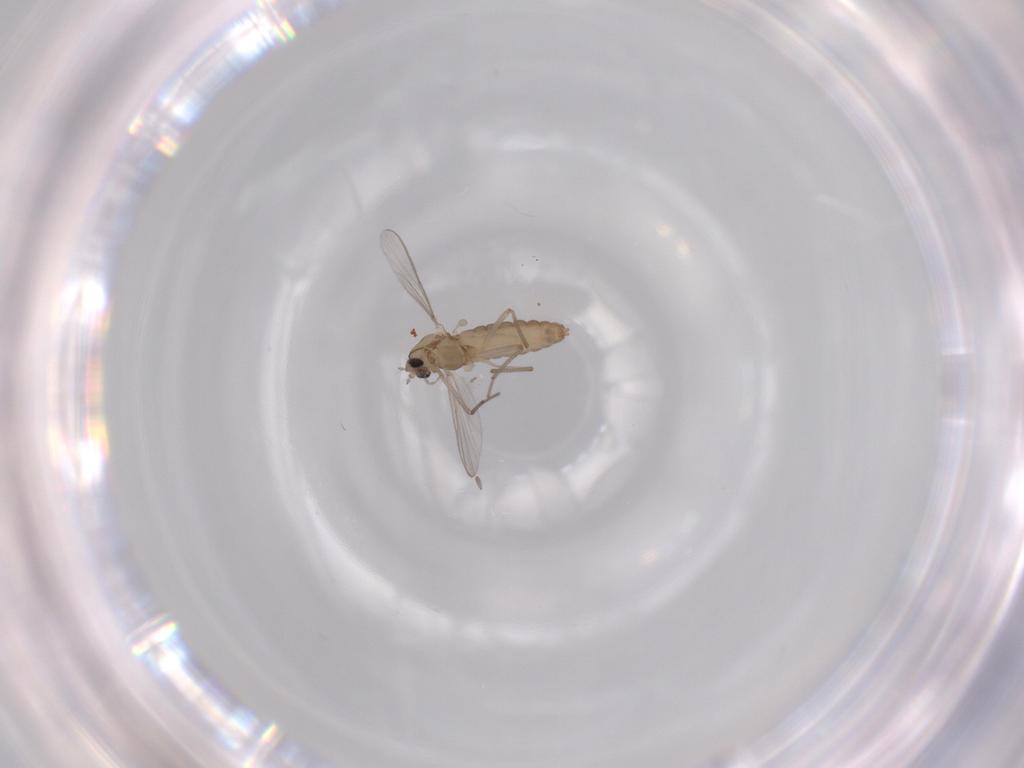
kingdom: Animalia
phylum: Arthropoda
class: Insecta
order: Diptera
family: Chironomidae
